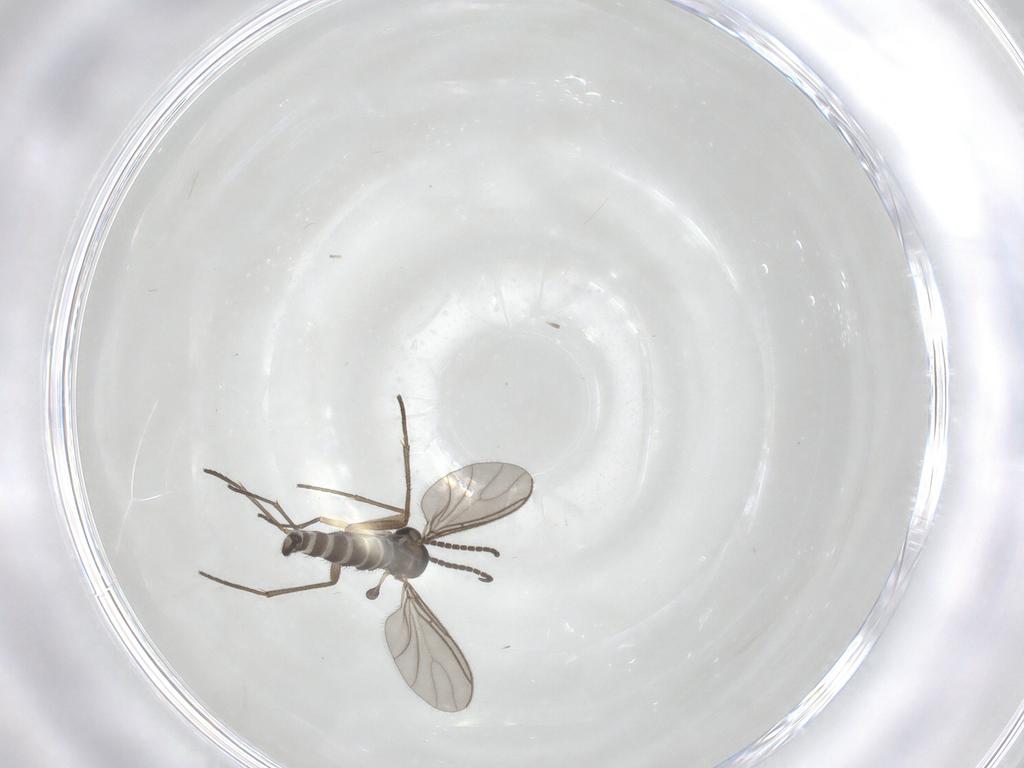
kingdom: Animalia
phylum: Arthropoda
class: Insecta
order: Diptera
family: Sciaridae
